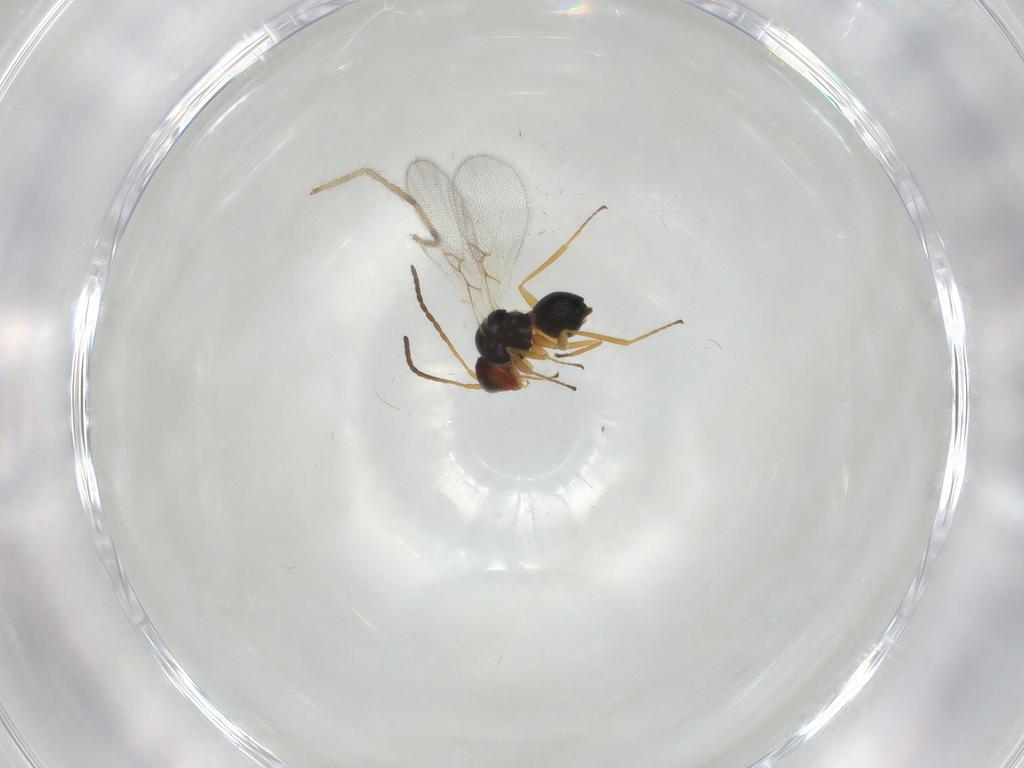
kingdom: Animalia
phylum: Arthropoda
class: Insecta
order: Hymenoptera
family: Figitidae
